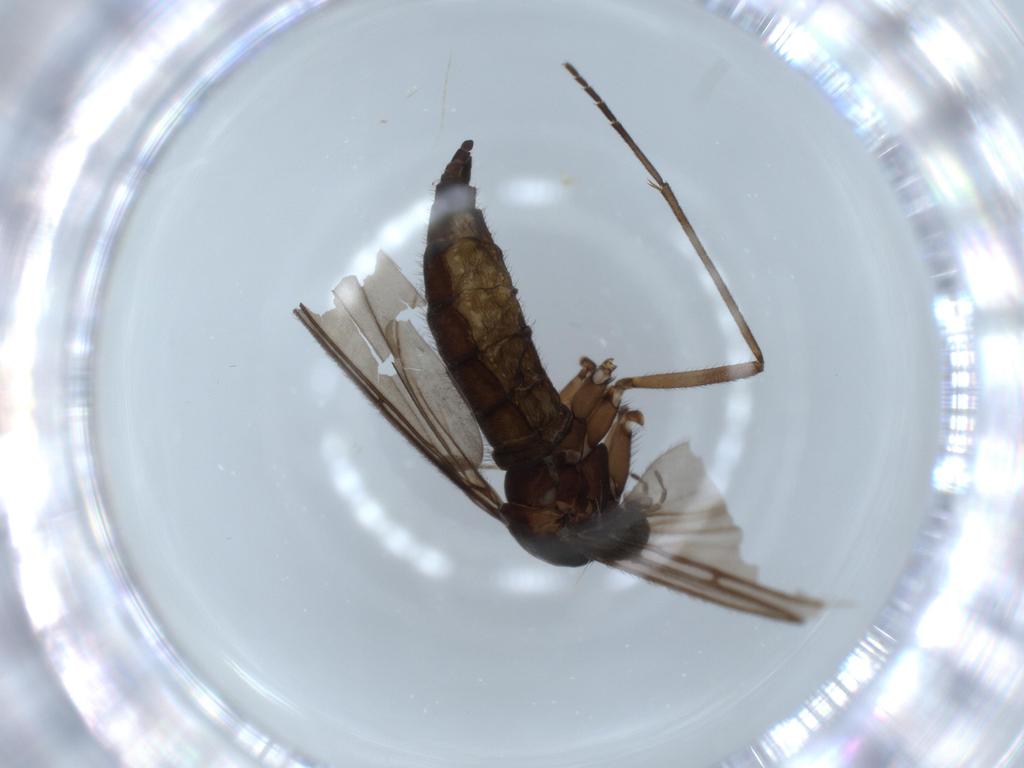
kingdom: Animalia
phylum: Arthropoda
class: Insecta
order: Diptera
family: Sciaridae
